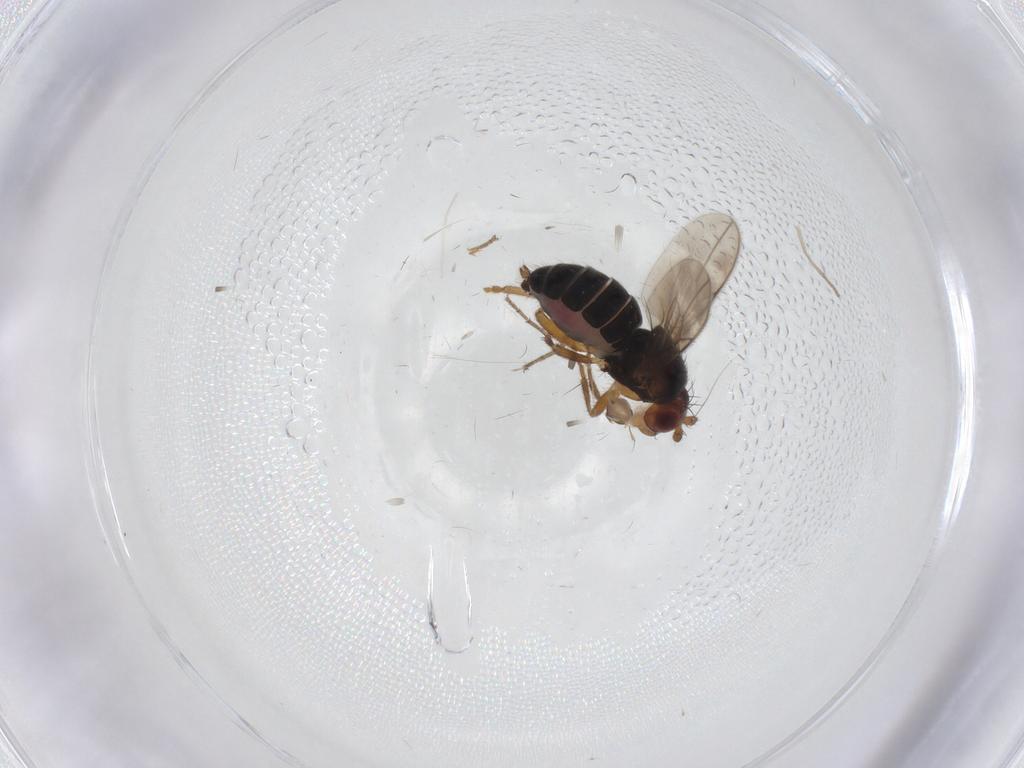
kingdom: Animalia
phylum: Arthropoda
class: Insecta
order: Diptera
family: Sphaeroceridae
